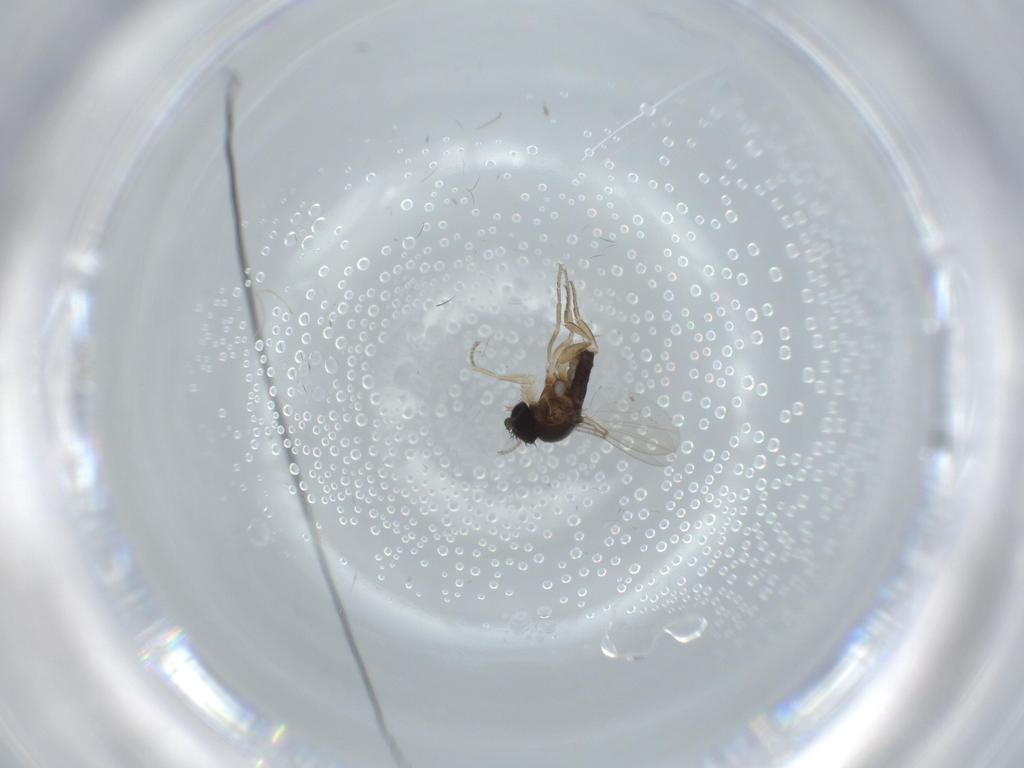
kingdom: Animalia
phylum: Arthropoda
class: Insecta
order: Diptera
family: Phoridae
